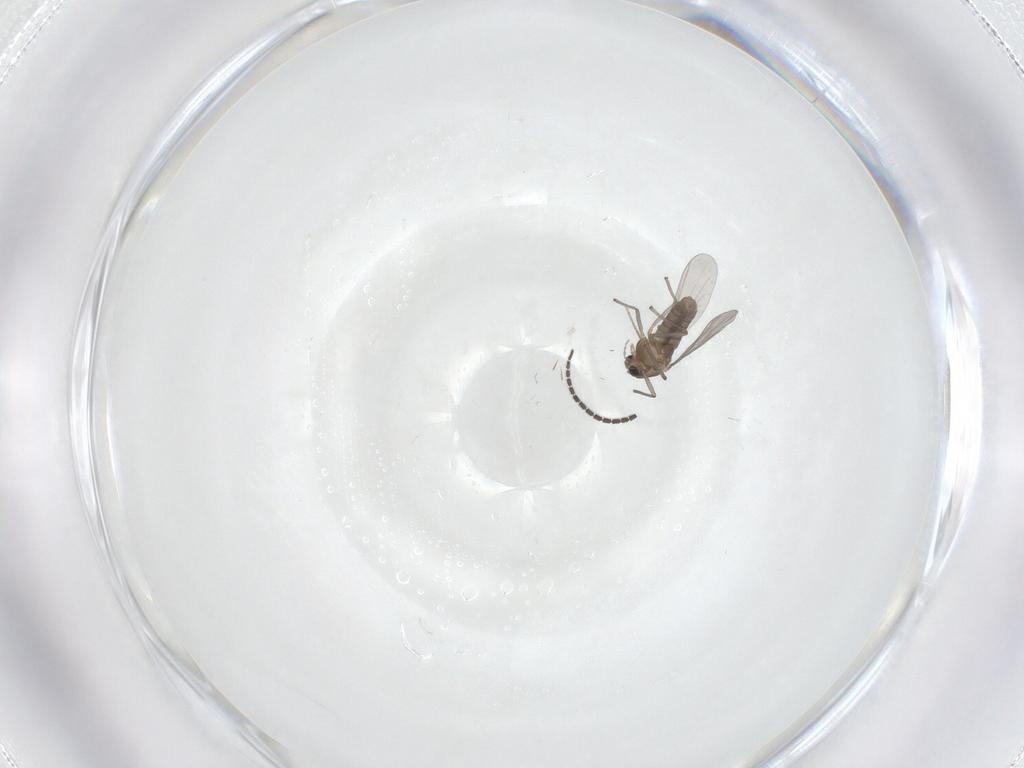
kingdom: Animalia
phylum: Arthropoda
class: Insecta
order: Diptera
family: Chironomidae
